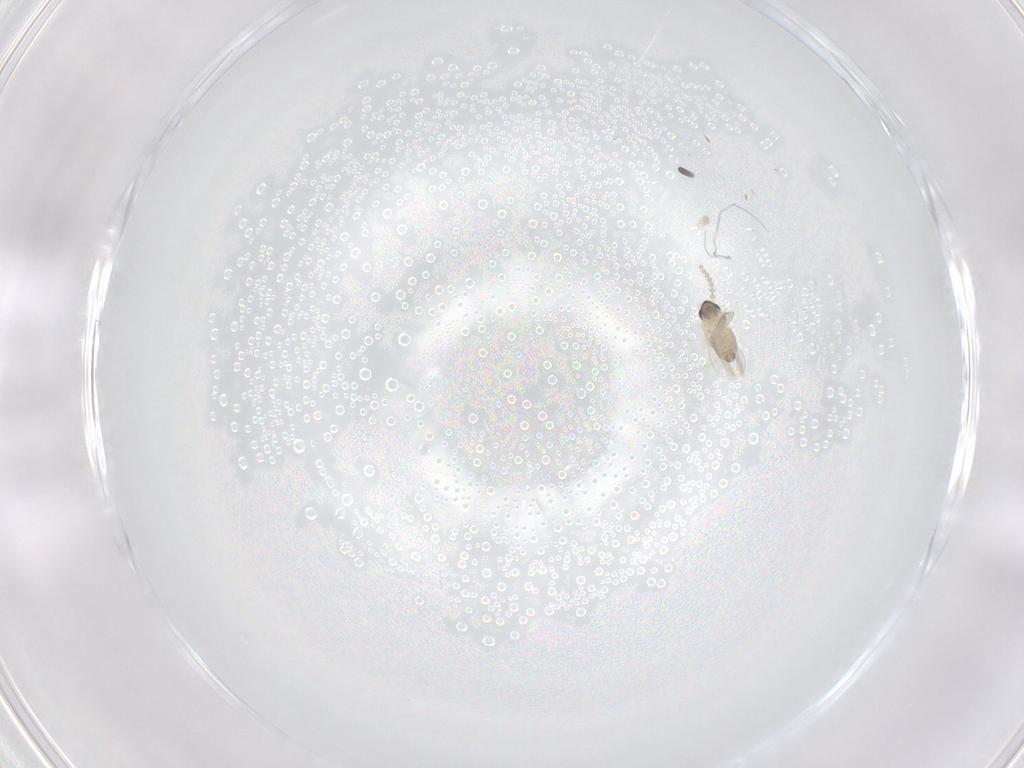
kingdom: Animalia
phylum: Arthropoda
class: Insecta
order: Diptera
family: Cecidomyiidae
